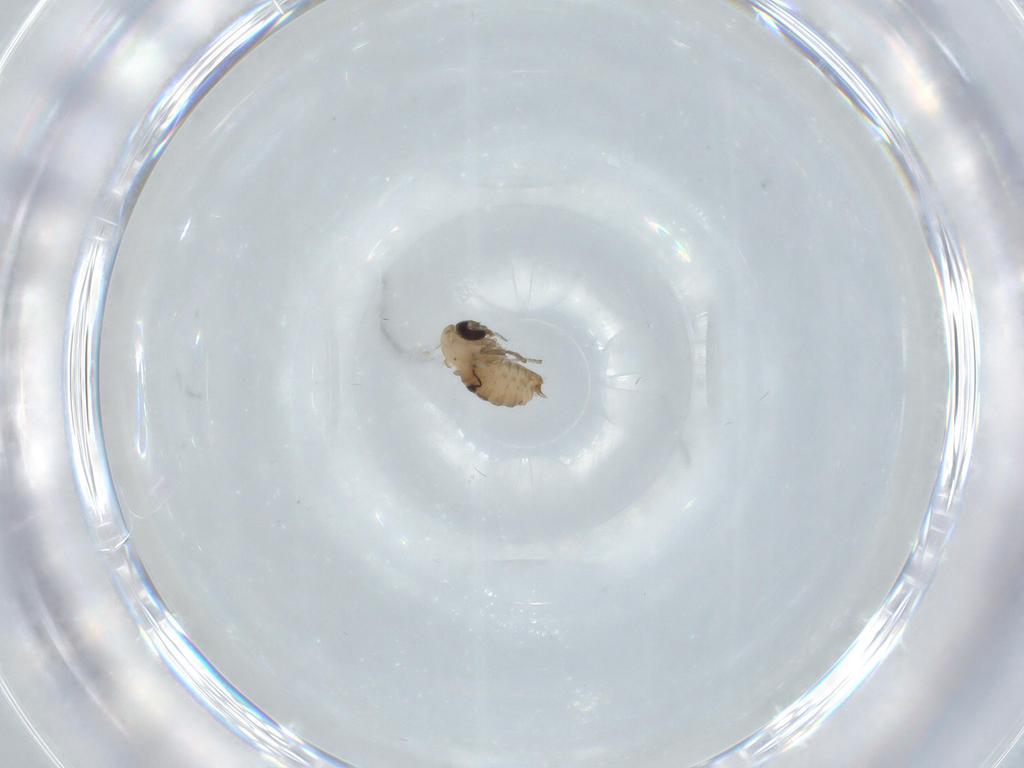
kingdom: Animalia
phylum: Arthropoda
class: Insecta
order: Diptera
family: Psychodidae
